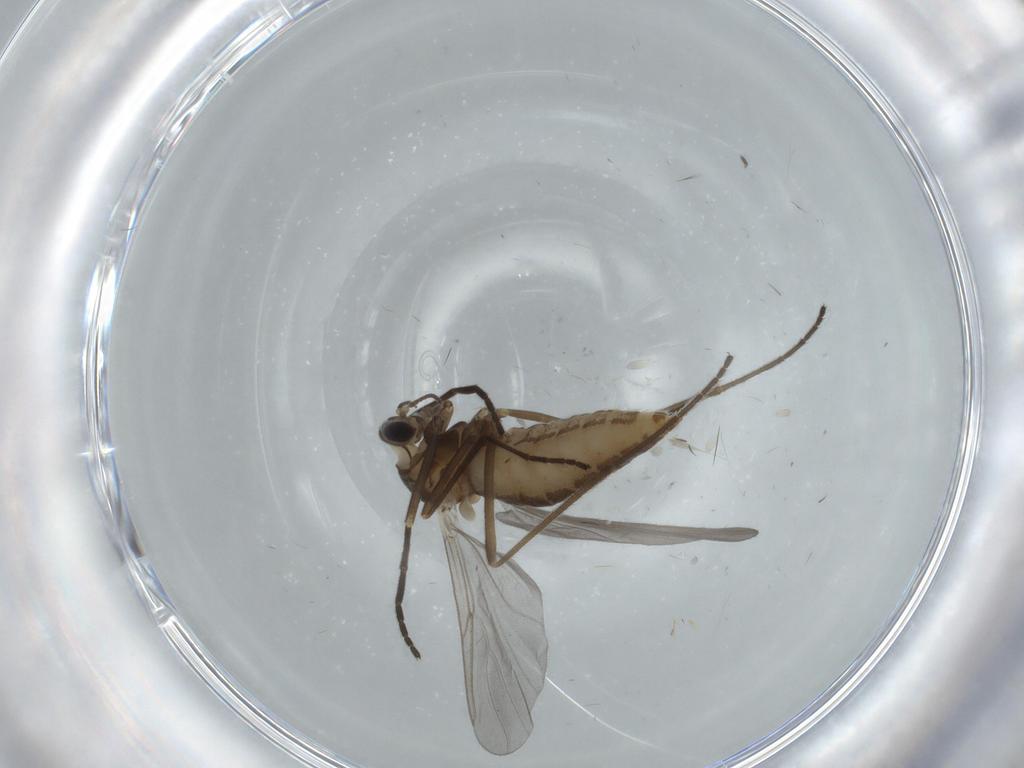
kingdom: Animalia
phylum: Arthropoda
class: Insecta
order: Diptera
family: Cecidomyiidae
